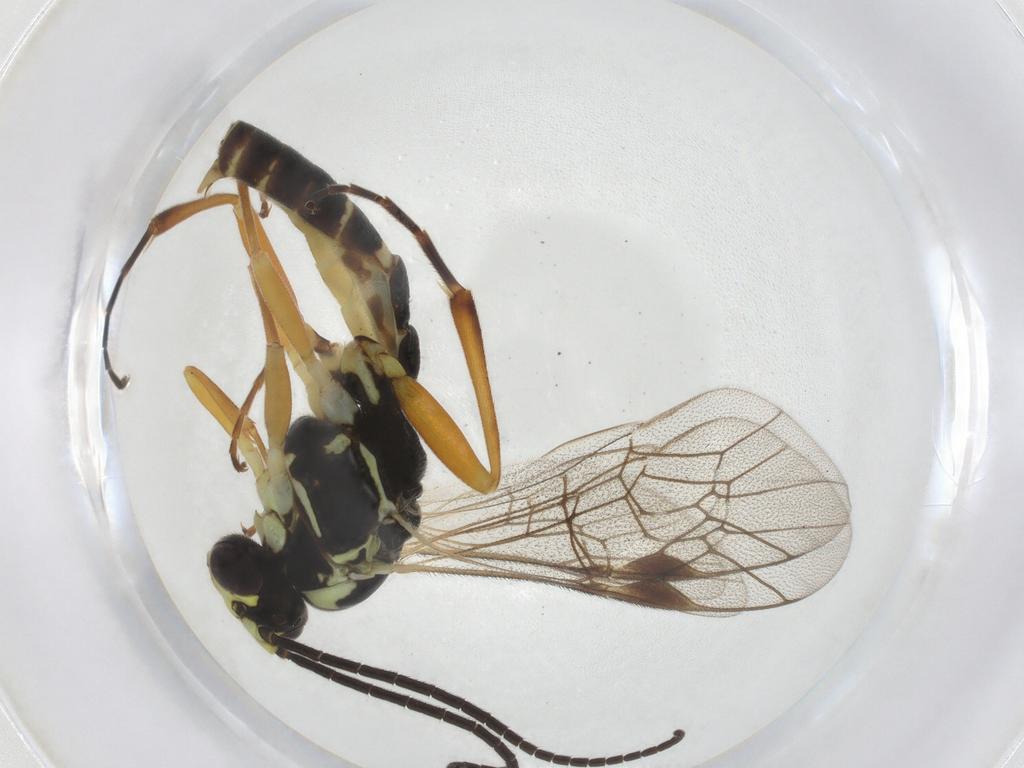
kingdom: Animalia
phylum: Arthropoda
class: Insecta
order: Hymenoptera
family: Ichneumonidae
